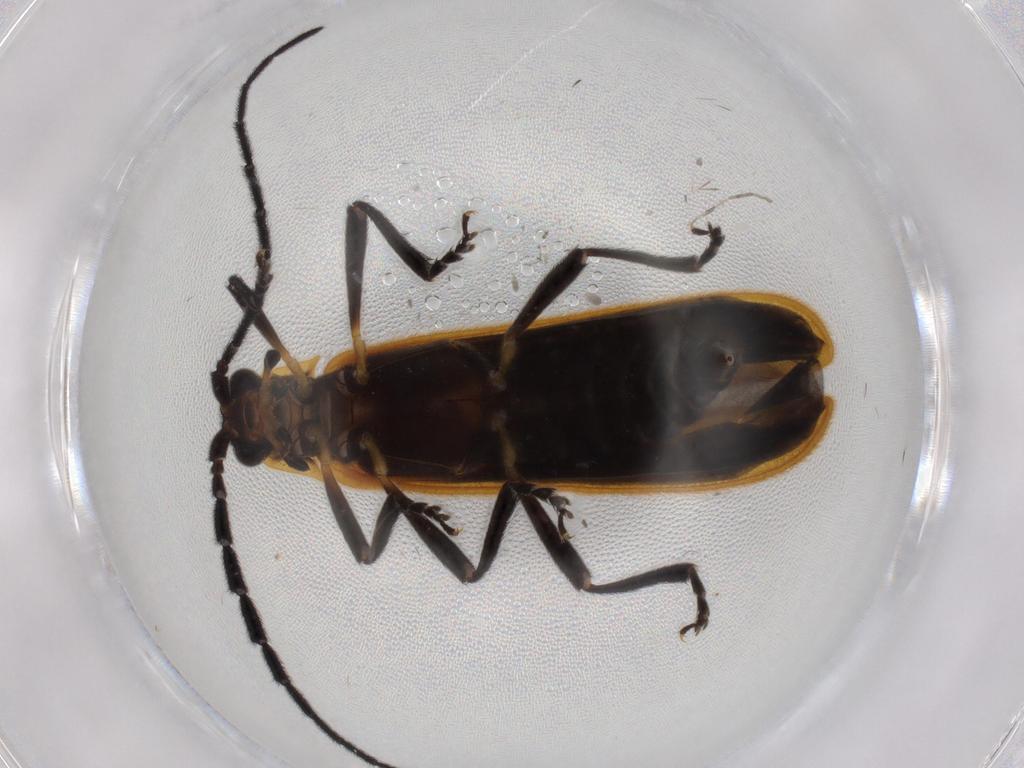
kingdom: Animalia
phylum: Arthropoda
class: Insecta
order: Coleoptera
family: Lycidae
